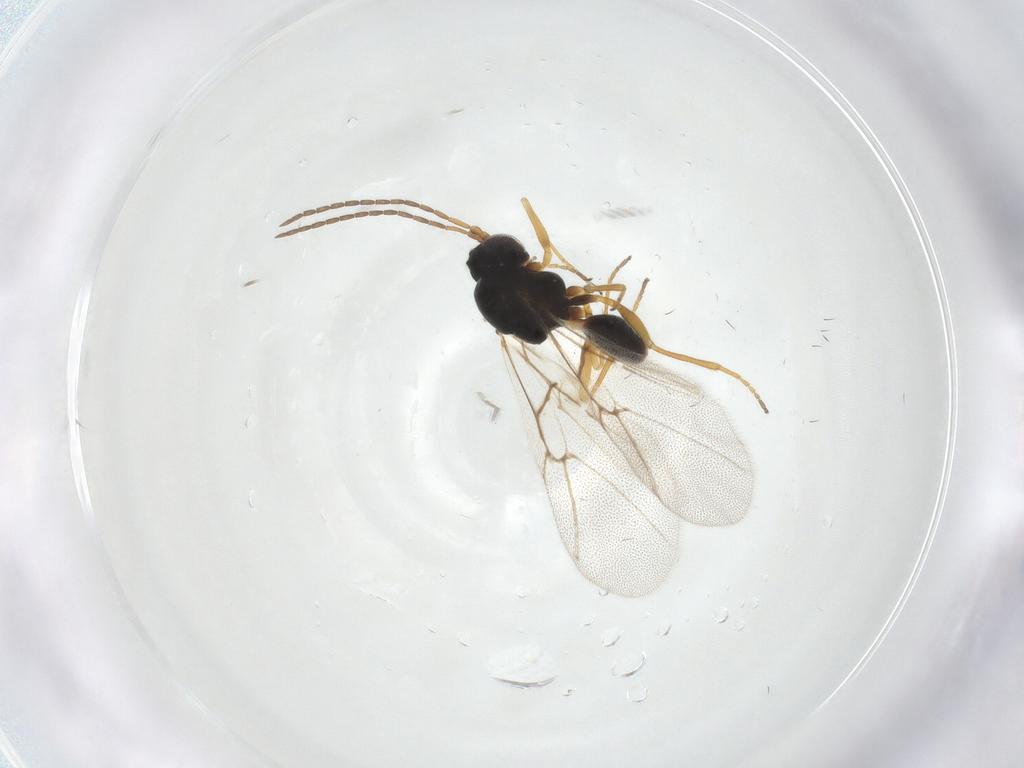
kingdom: Animalia
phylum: Arthropoda
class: Insecta
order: Hymenoptera
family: Cynipidae
